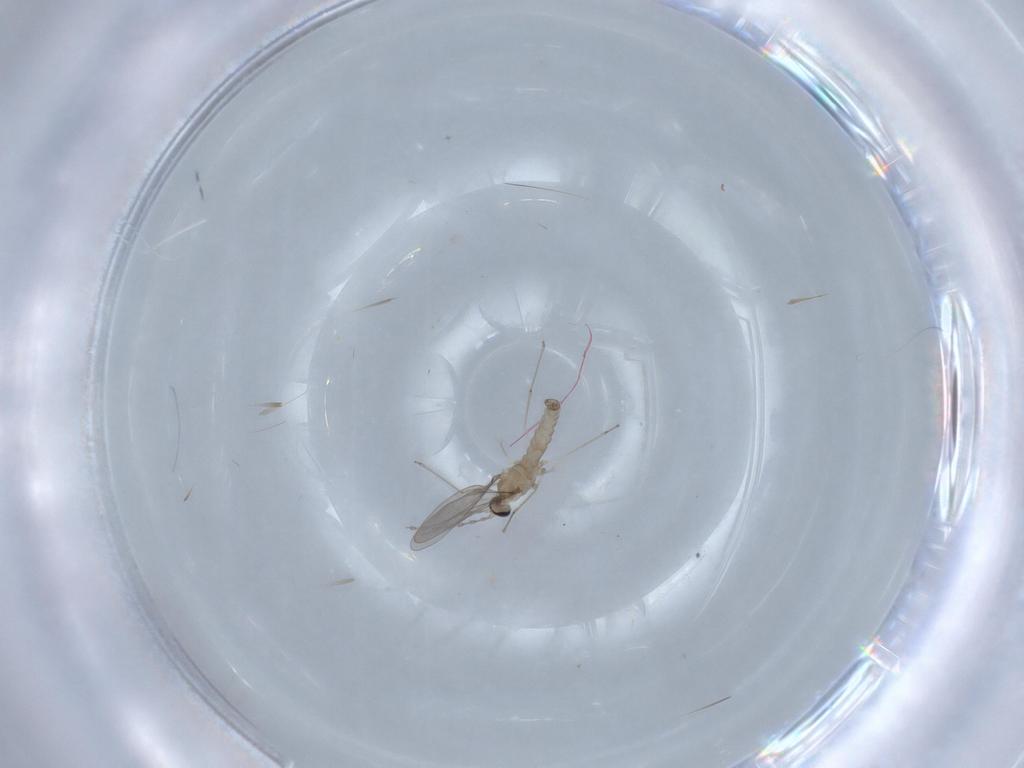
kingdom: Animalia
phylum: Arthropoda
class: Insecta
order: Diptera
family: Cecidomyiidae
